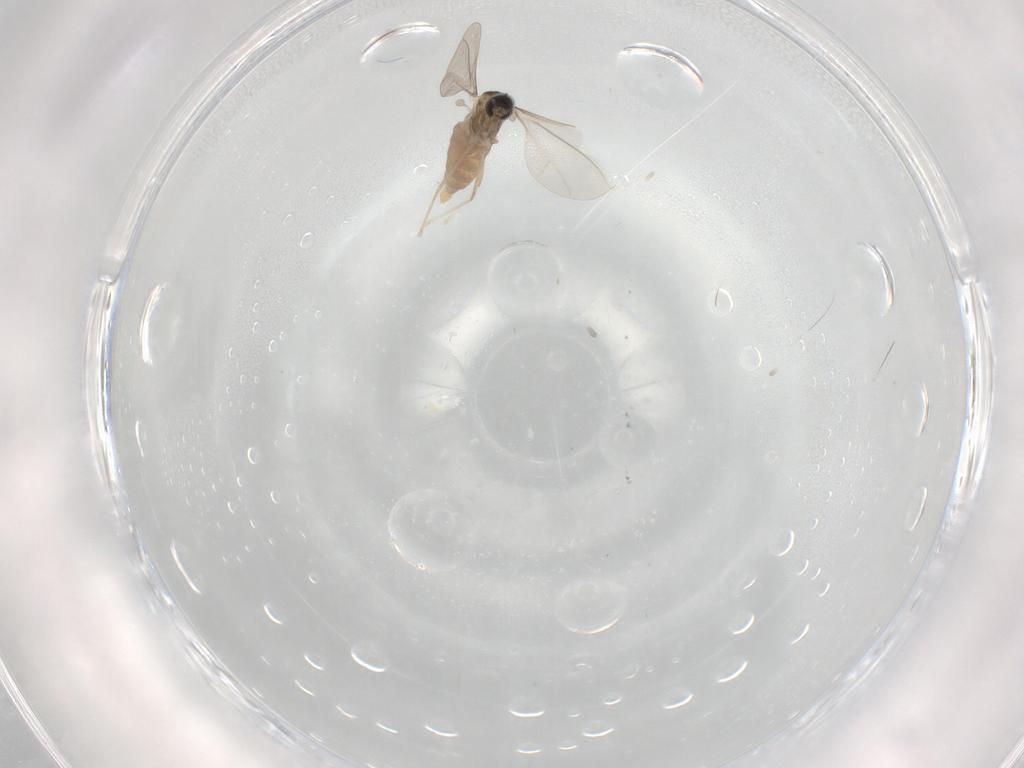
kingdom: Animalia
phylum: Arthropoda
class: Insecta
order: Diptera
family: Cecidomyiidae
